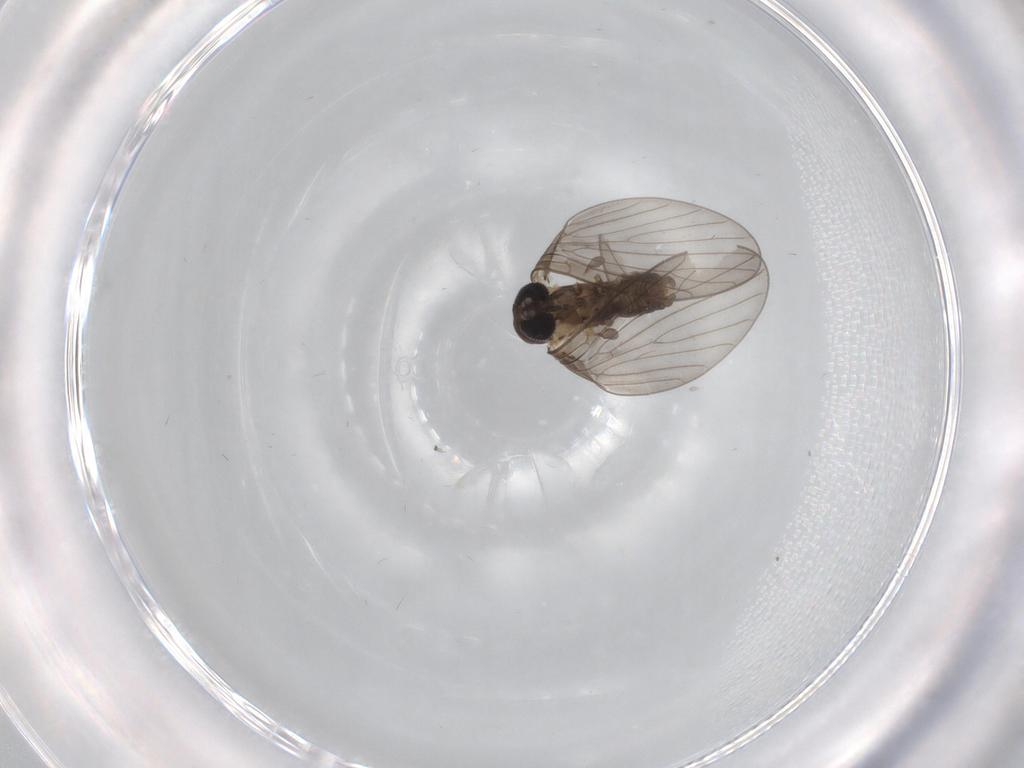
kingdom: Animalia
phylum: Arthropoda
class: Insecta
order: Diptera
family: Psychodidae
